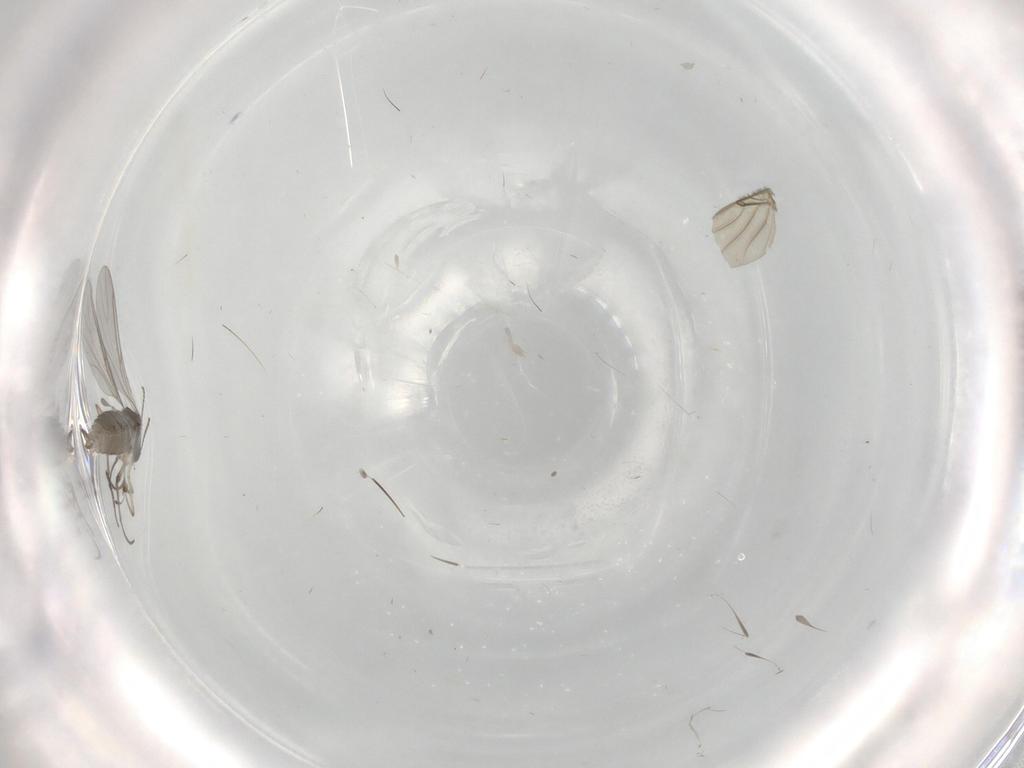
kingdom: Animalia
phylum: Arthropoda
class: Insecta
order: Diptera
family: Sciaridae
